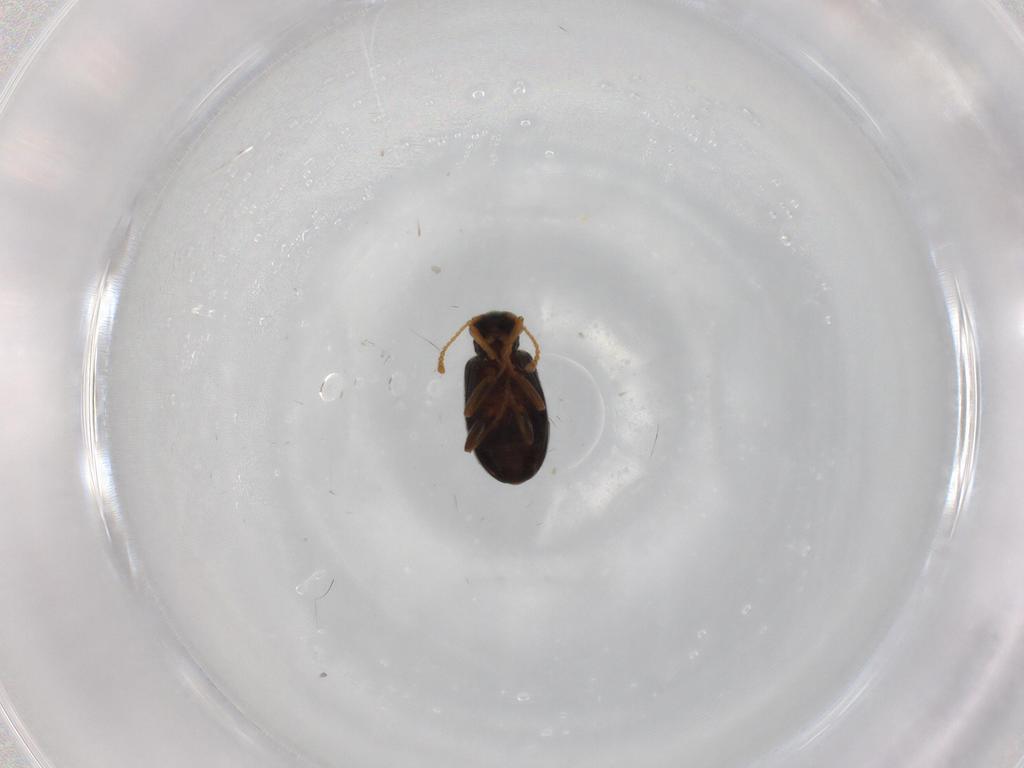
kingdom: Animalia
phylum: Arthropoda
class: Insecta
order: Coleoptera
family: Aderidae
